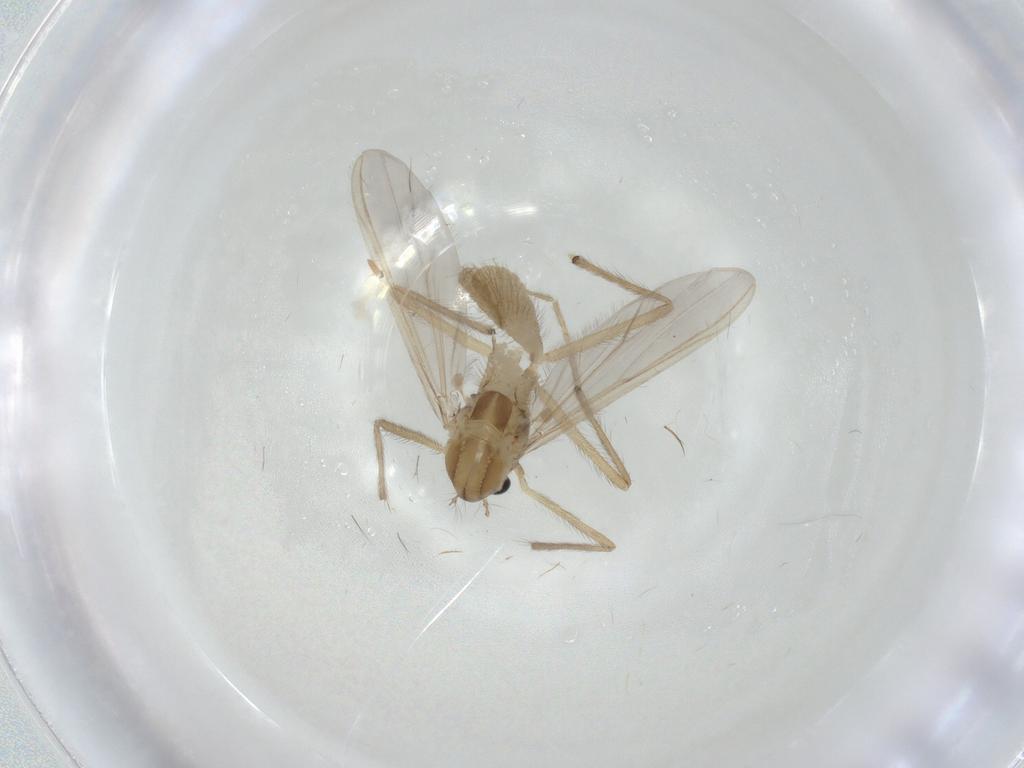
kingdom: Animalia
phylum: Arthropoda
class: Insecta
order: Diptera
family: Chironomidae
